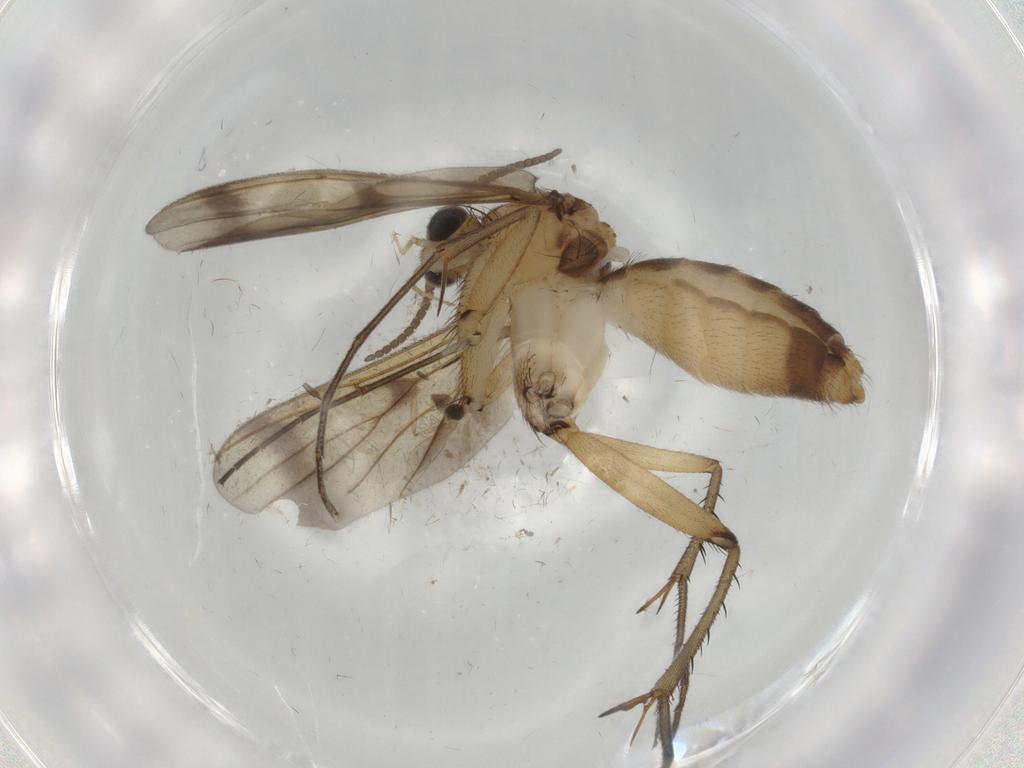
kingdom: Animalia
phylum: Arthropoda
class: Insecta
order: Diptera
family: Mycetophilidae
